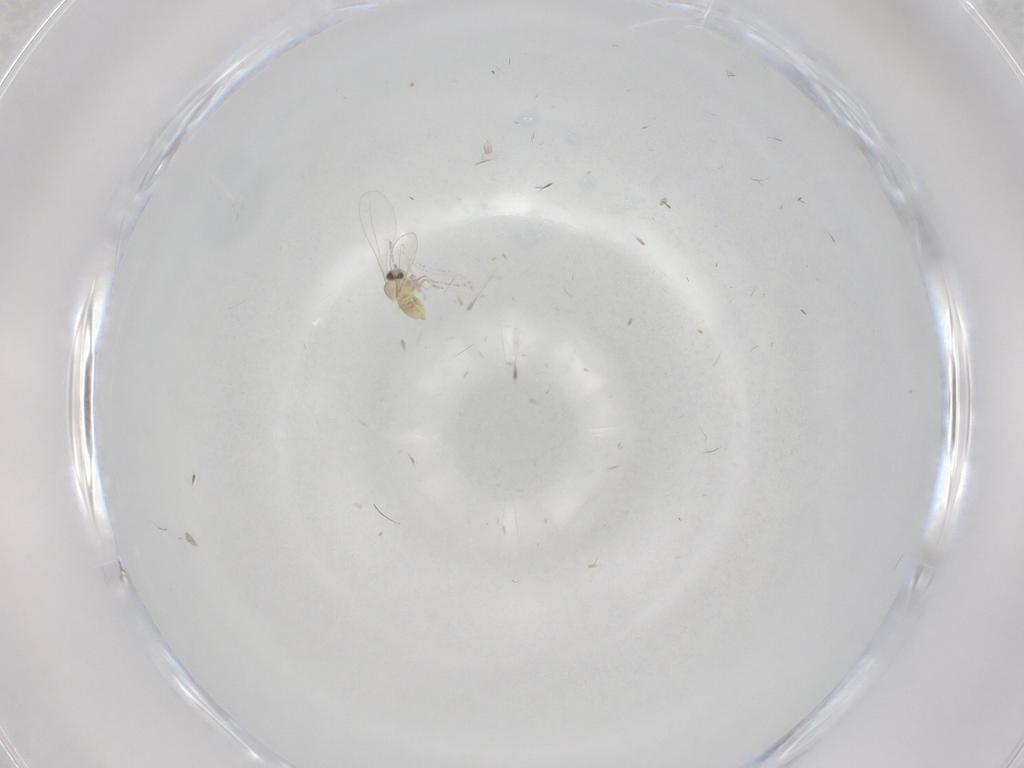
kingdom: Animalia
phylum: Arthropoda
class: Insecta
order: Diptera
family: Cecidomyiidae
